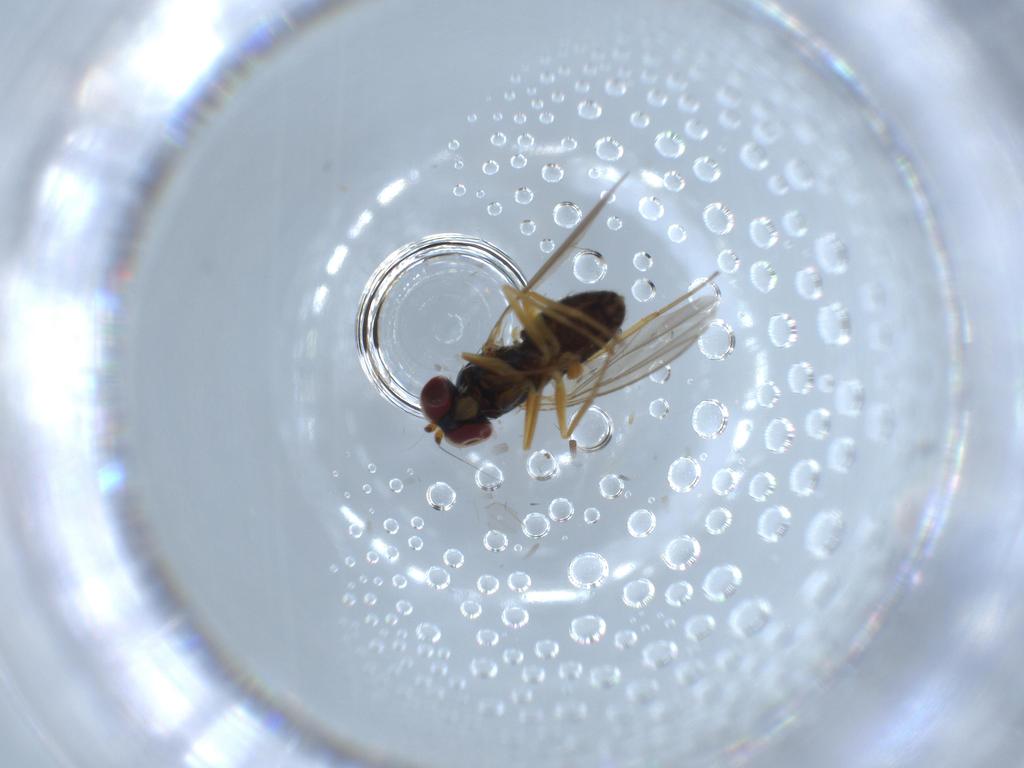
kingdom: Animalia
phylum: Arthropoda
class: Insecta
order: Diptera
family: Dolichopodidae
